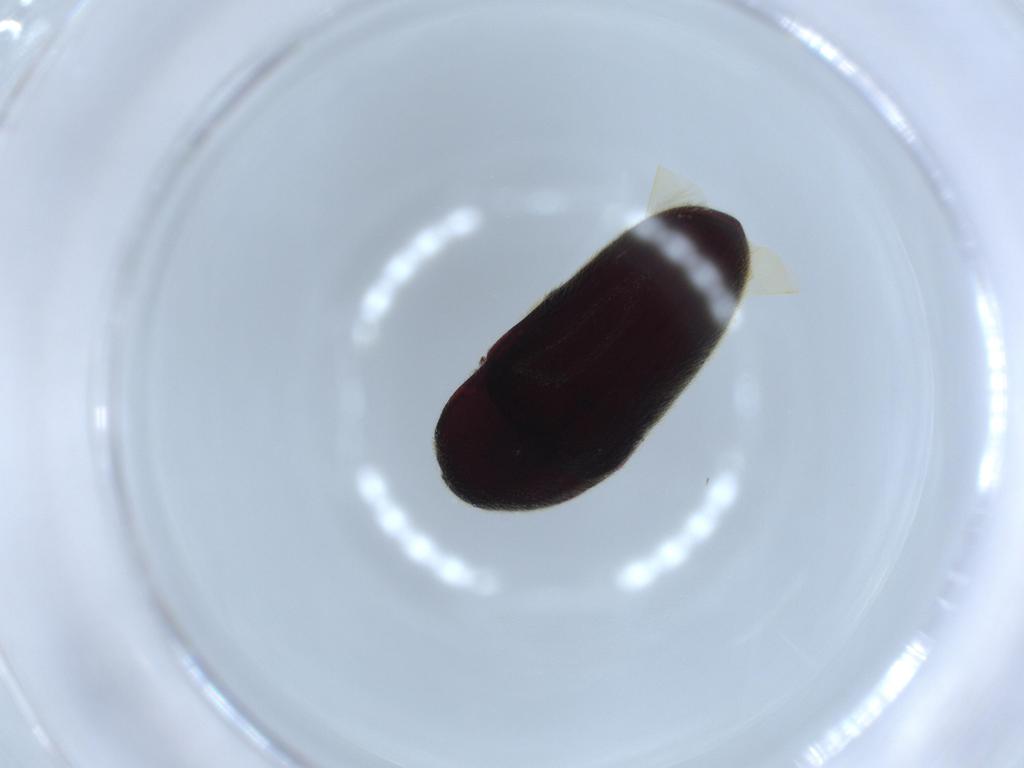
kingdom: Animalia
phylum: Arthropoda
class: Insecta
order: Coleoptera
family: Throscidae
